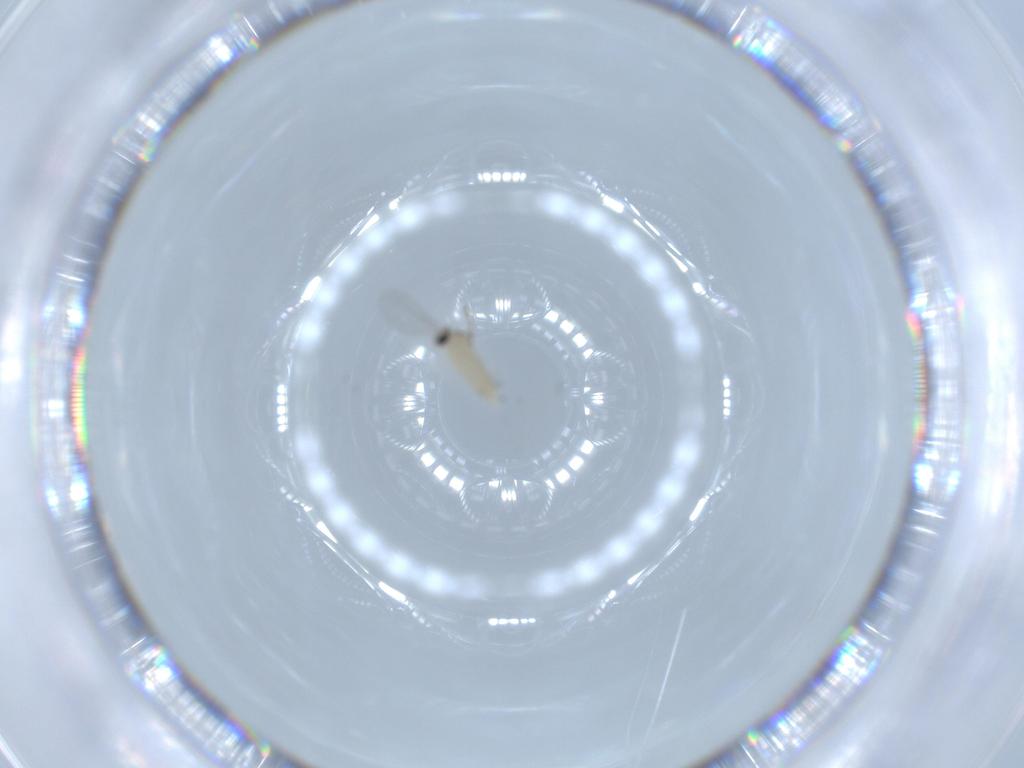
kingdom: Animalia
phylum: Arthropoda
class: Insecta
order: Diptera
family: Cecidomyiidae
